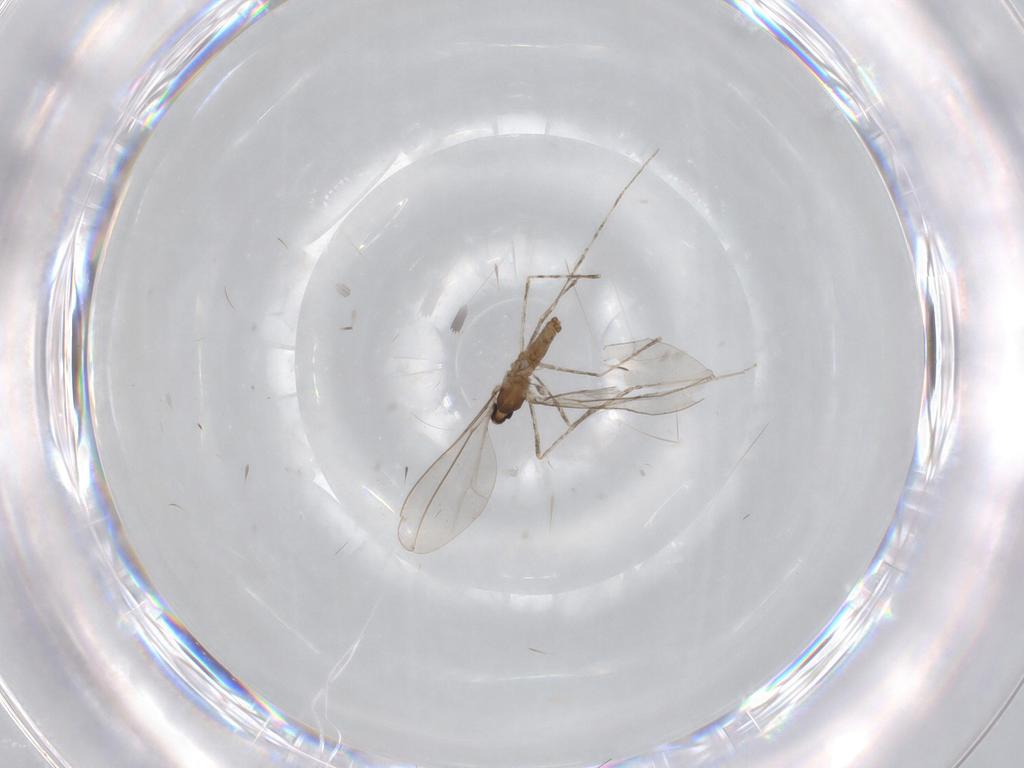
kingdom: Animalia
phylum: Arthropoda
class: Insecta
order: Diptera
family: Cecidomyiidae
